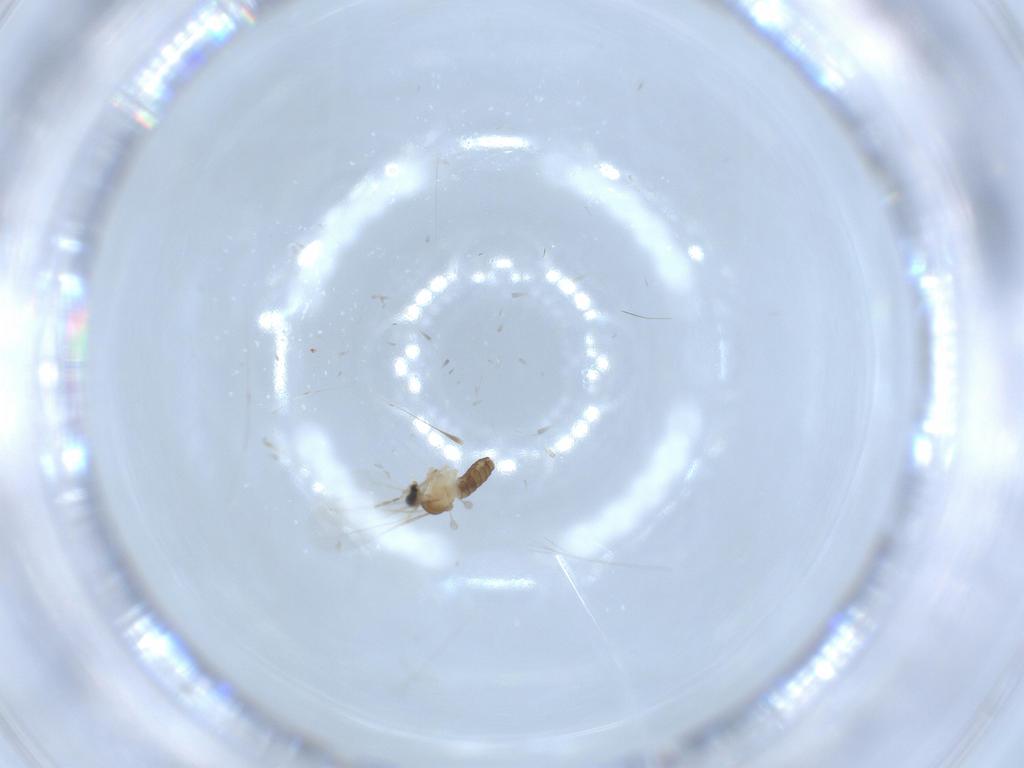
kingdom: Animalia
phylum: Arthropoda
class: Insecta
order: Diptera
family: Cecidomyiidae
